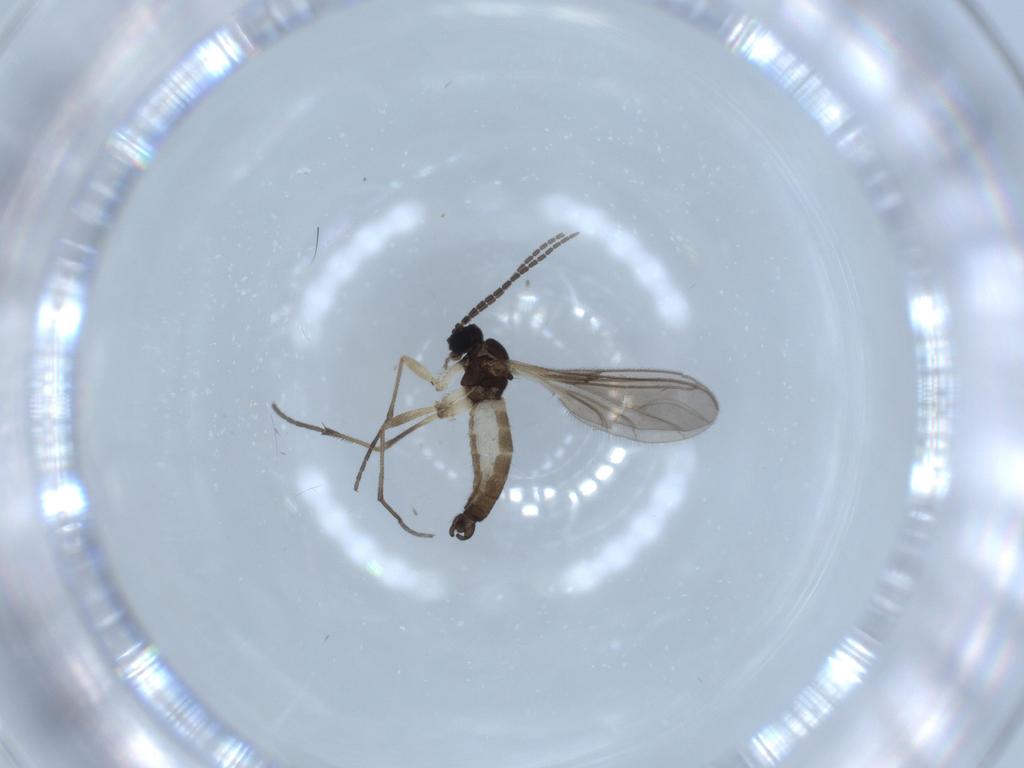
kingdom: Animalia
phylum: Arthropoda
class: Insecta
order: Diptera
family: Sciaridae
